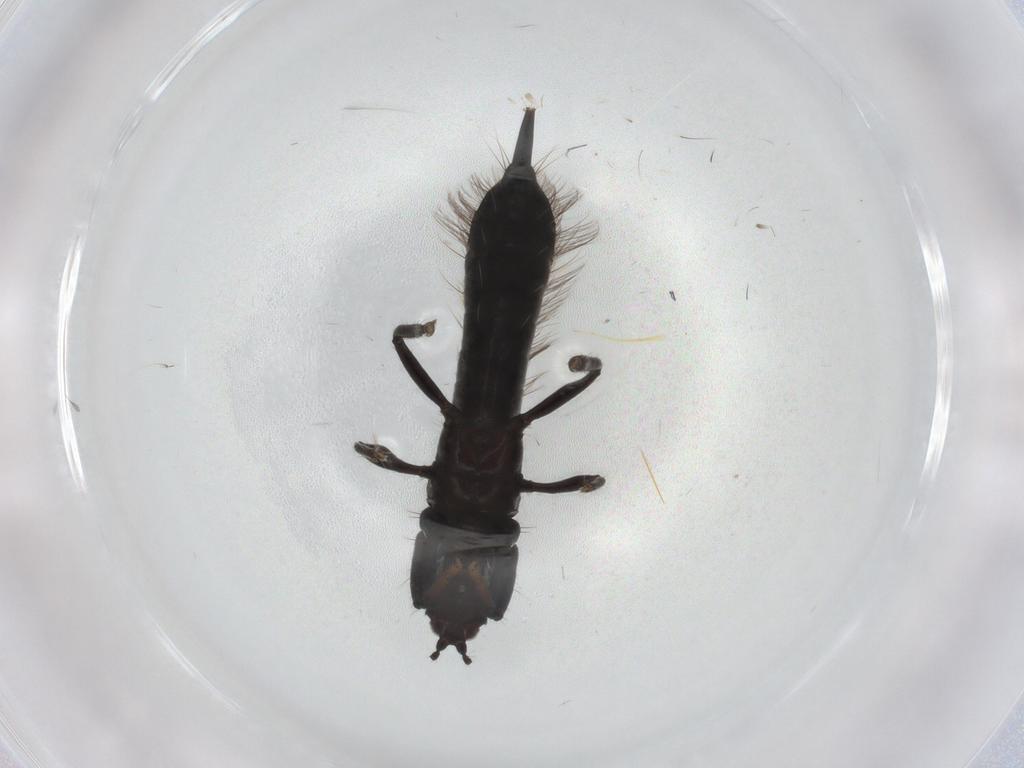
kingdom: Animalia
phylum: Arthropoda
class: Insecta
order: Thysanoptera
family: Phlaeothripidae
